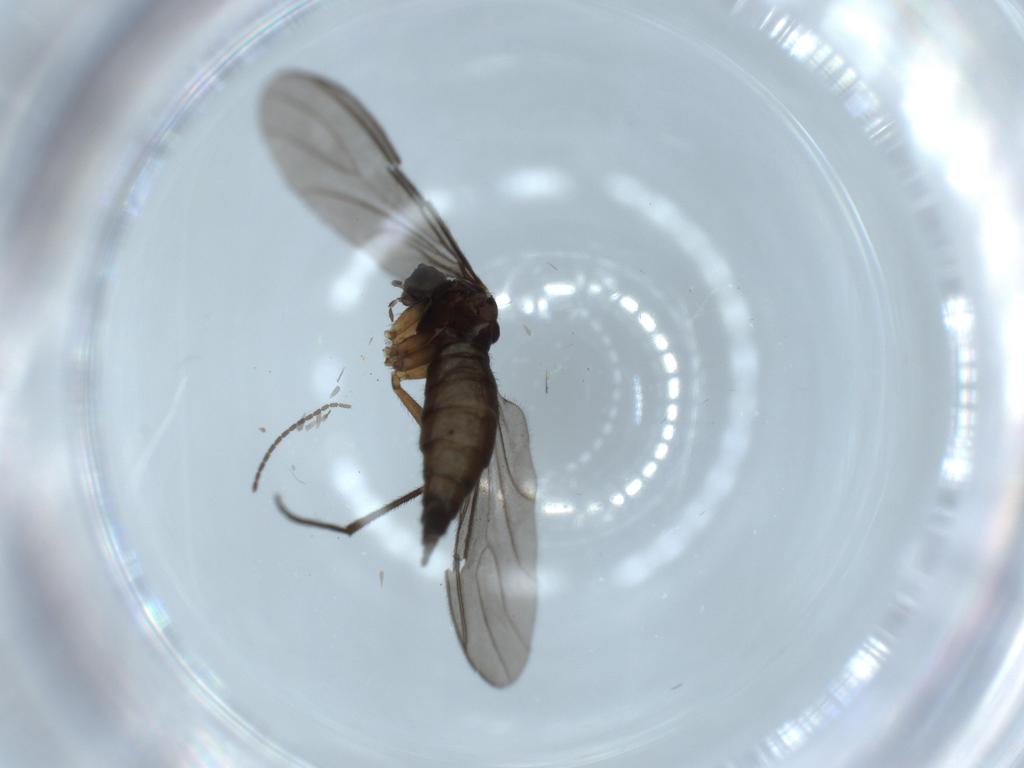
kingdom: Animalia
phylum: Arthropoda
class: Insecta
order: Diptera
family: Sciaridae
